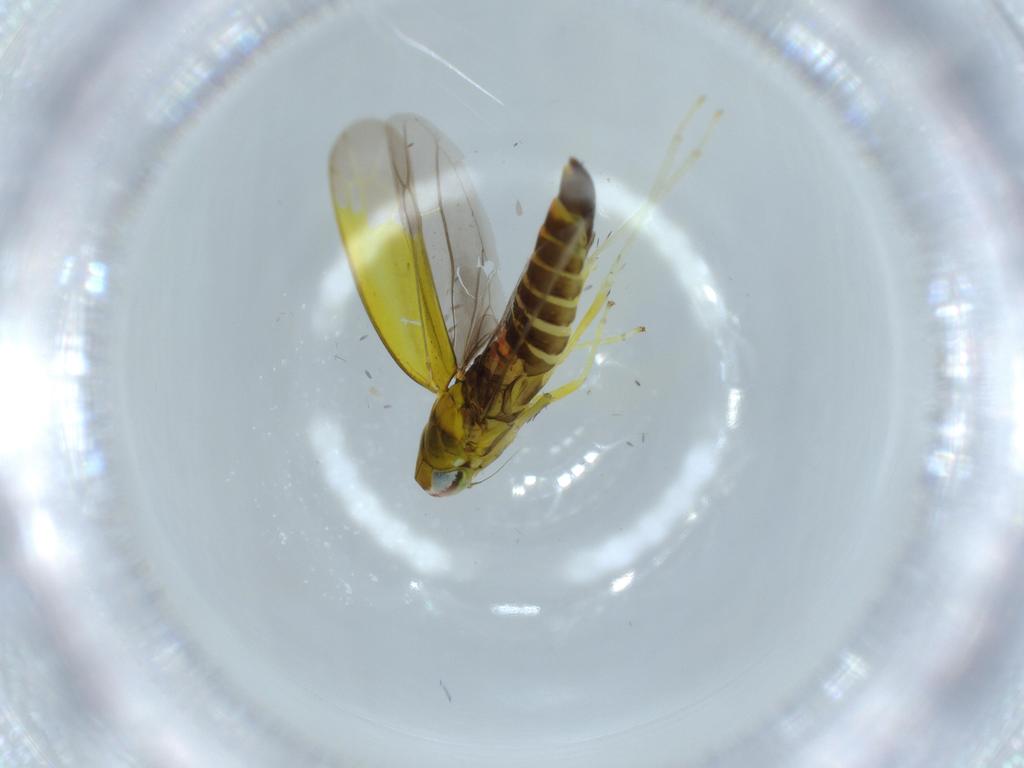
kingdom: Animalia
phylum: Arthropoda
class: Insecta
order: Hemiptera
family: Cicadellidae
